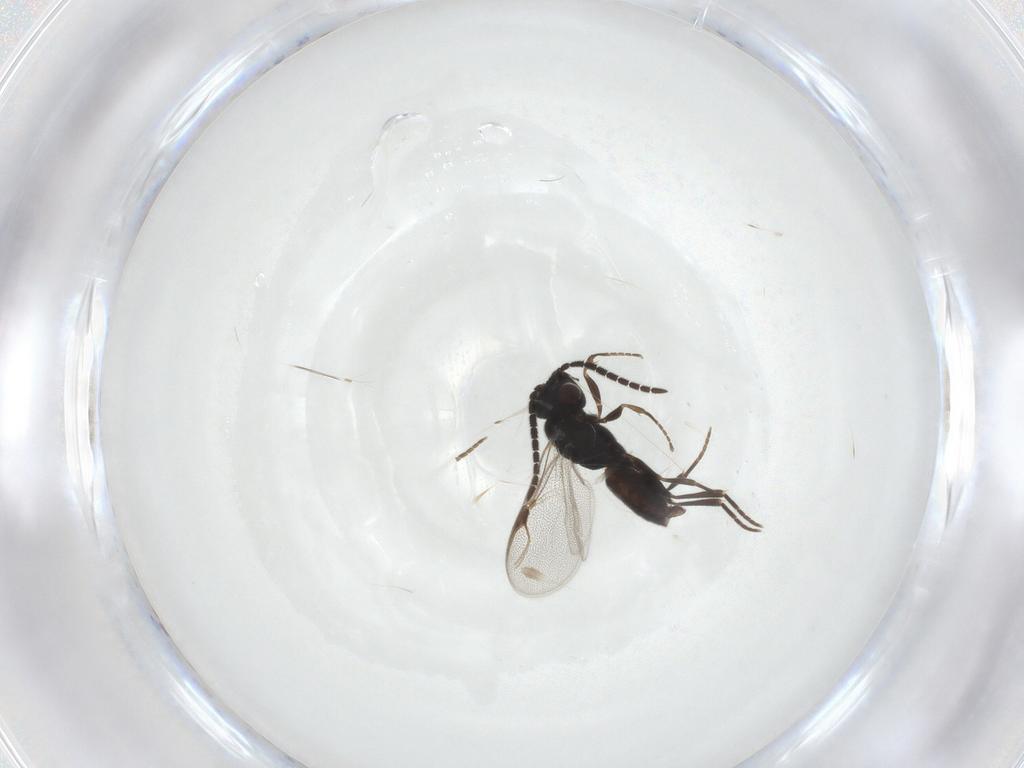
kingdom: Animalia
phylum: Arthropoda
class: Insecta
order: Hymenoptera
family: Dryinidae
